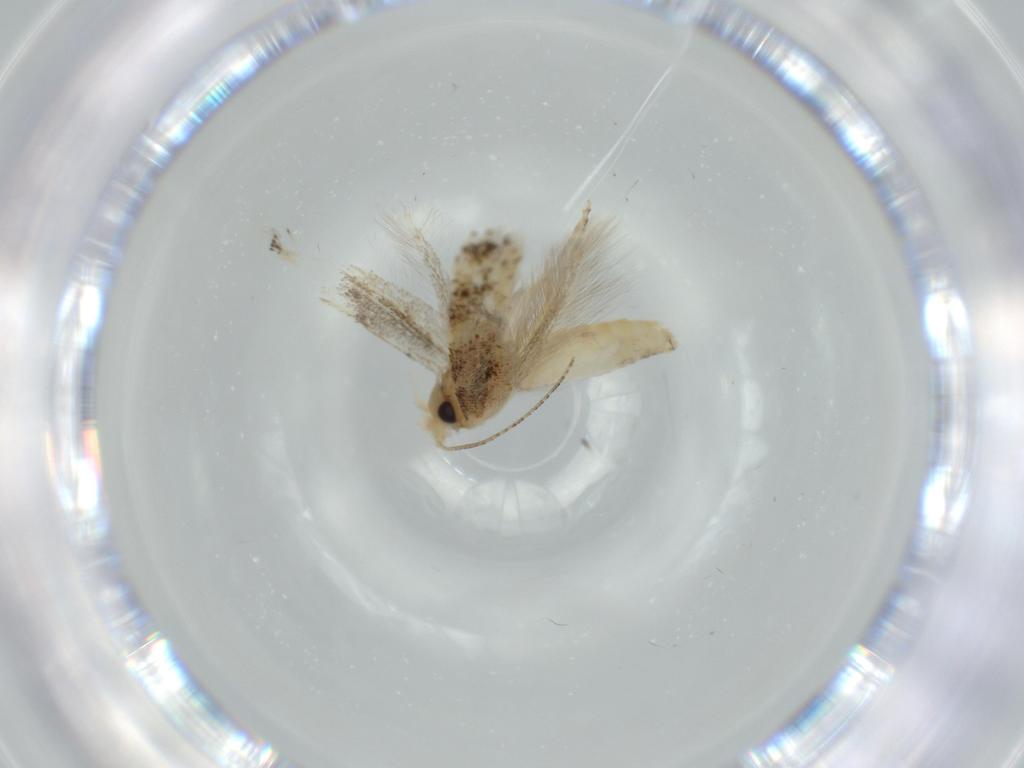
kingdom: Animalia
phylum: Arthropoda
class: Insecta
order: Lepidoptera
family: Bucculatricidae
